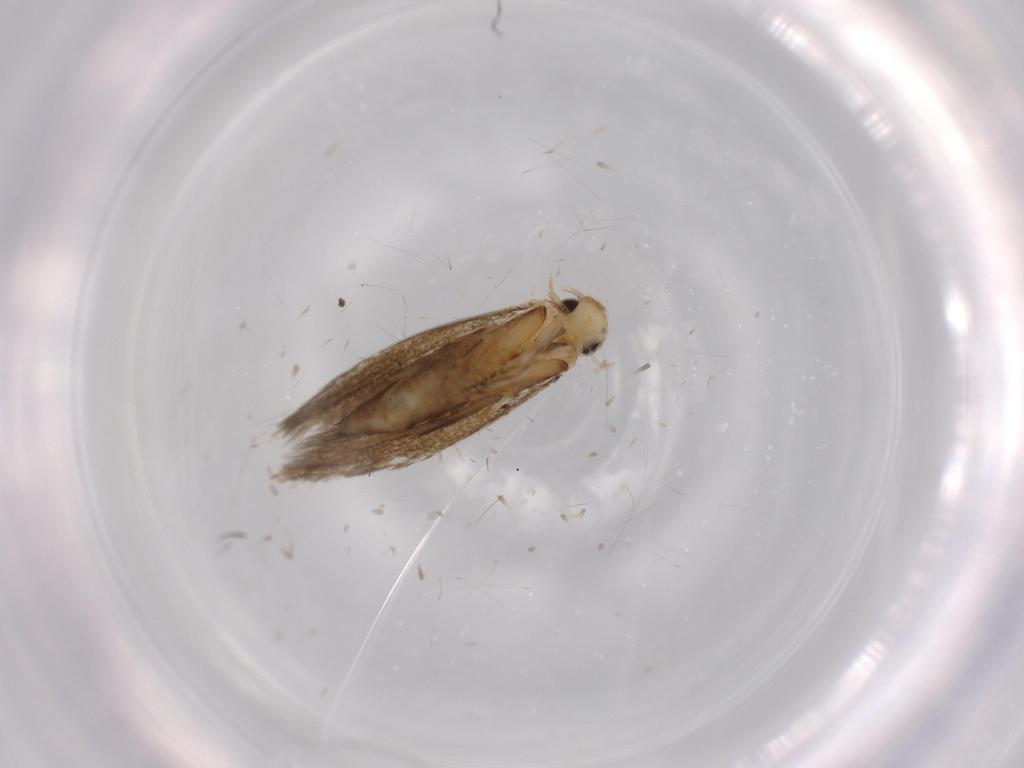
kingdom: Animalia
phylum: Arthropoda
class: Insecta
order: Lepidoptera
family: Tineidae
